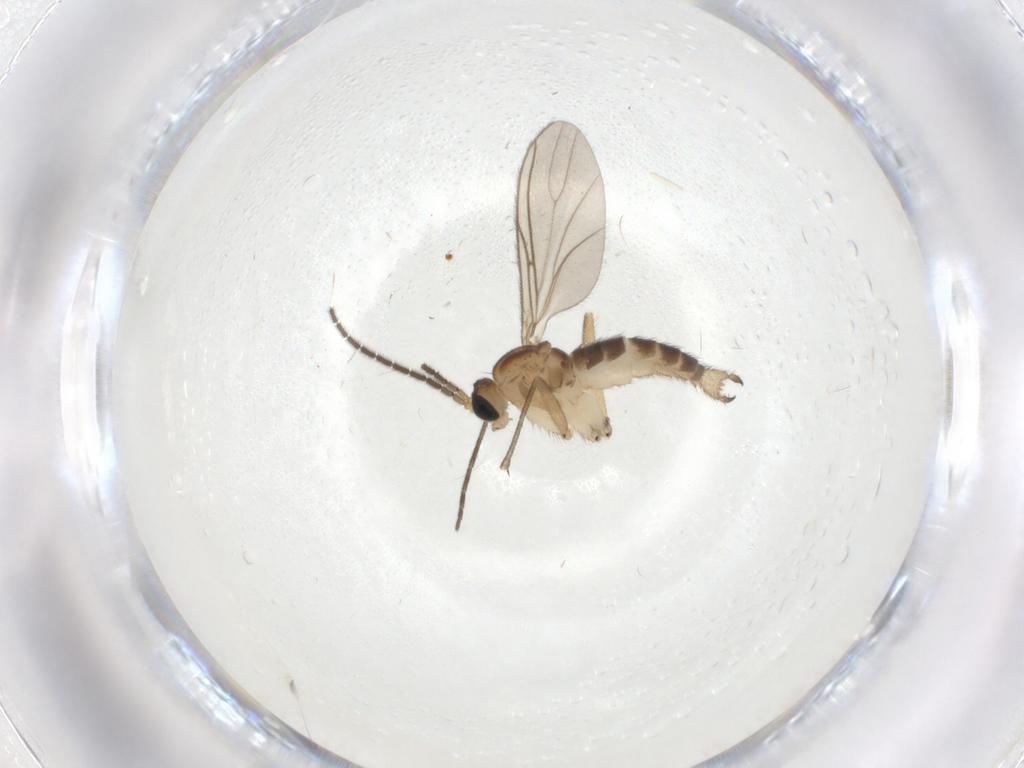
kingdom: Animalia
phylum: Arthropoda
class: Insecta
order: Diptera
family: Sciaridae
